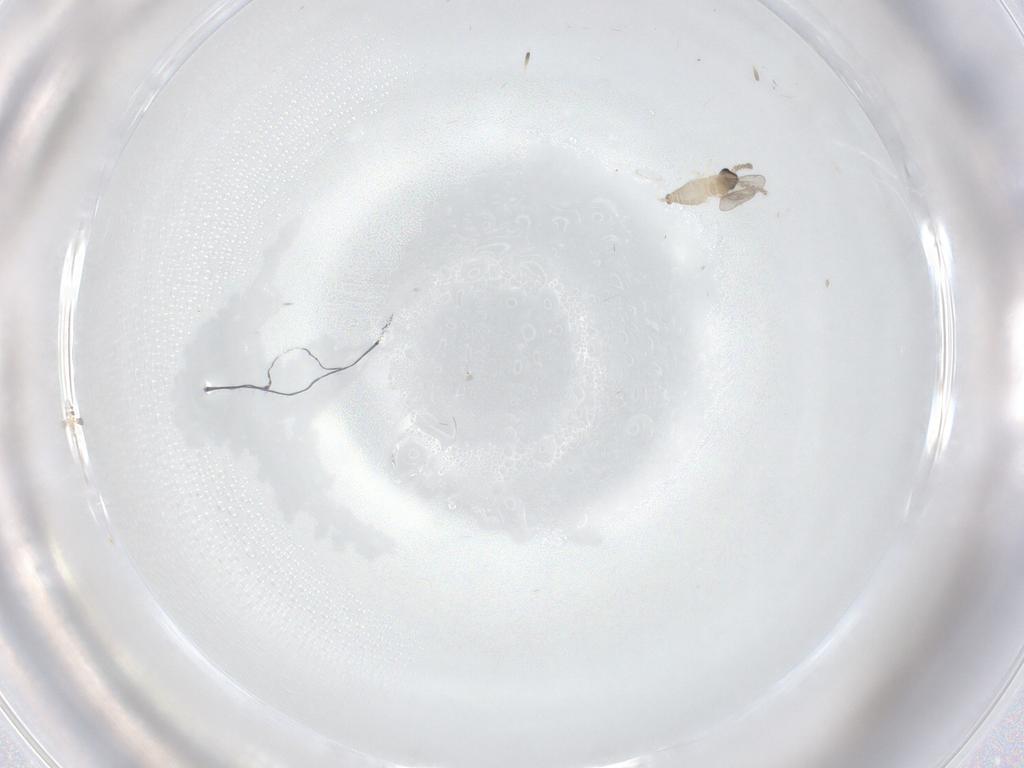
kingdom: Animalia
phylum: Arthropoda
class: Insecta
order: Diptera
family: Cecidomyiidae
